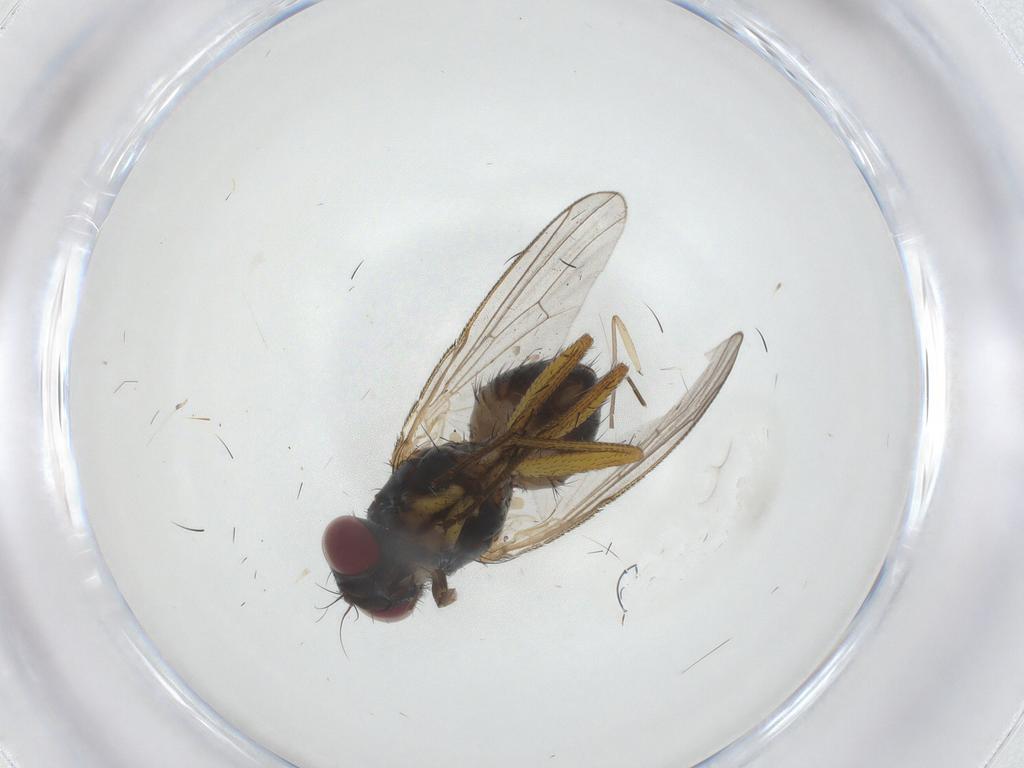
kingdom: Animalia
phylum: Arthropoda
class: Insecta
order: Diptera
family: Muscidae
